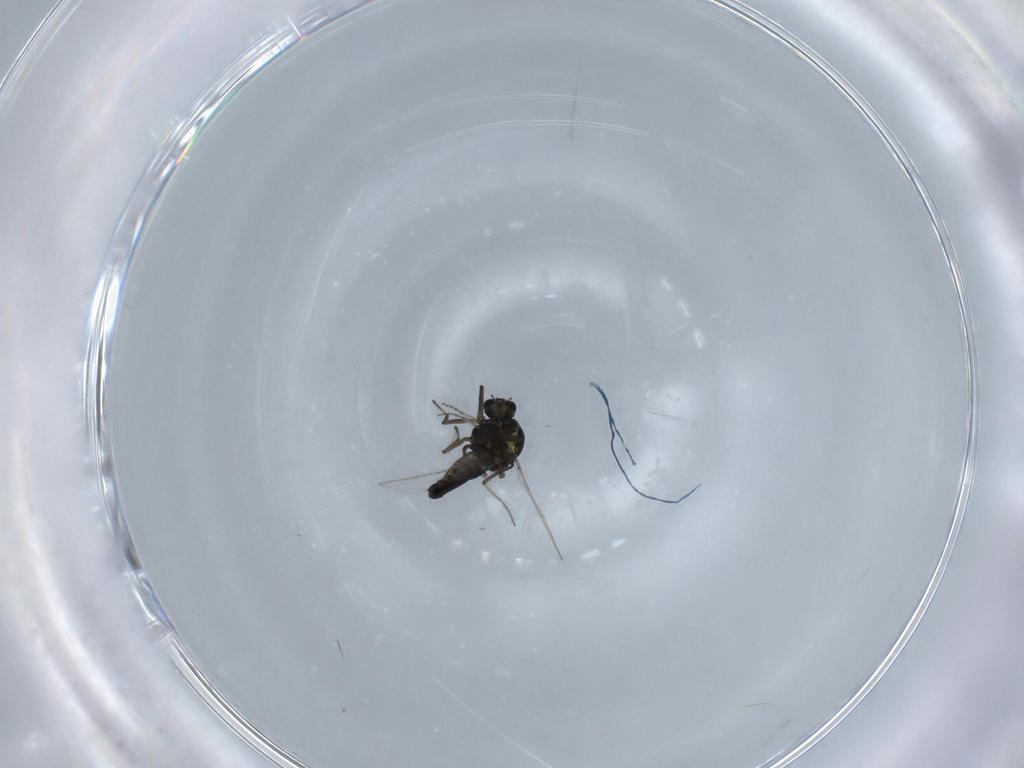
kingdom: Animalia
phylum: Arthropoda
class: Insecta
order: Diptera
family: Ceratopogonidae
